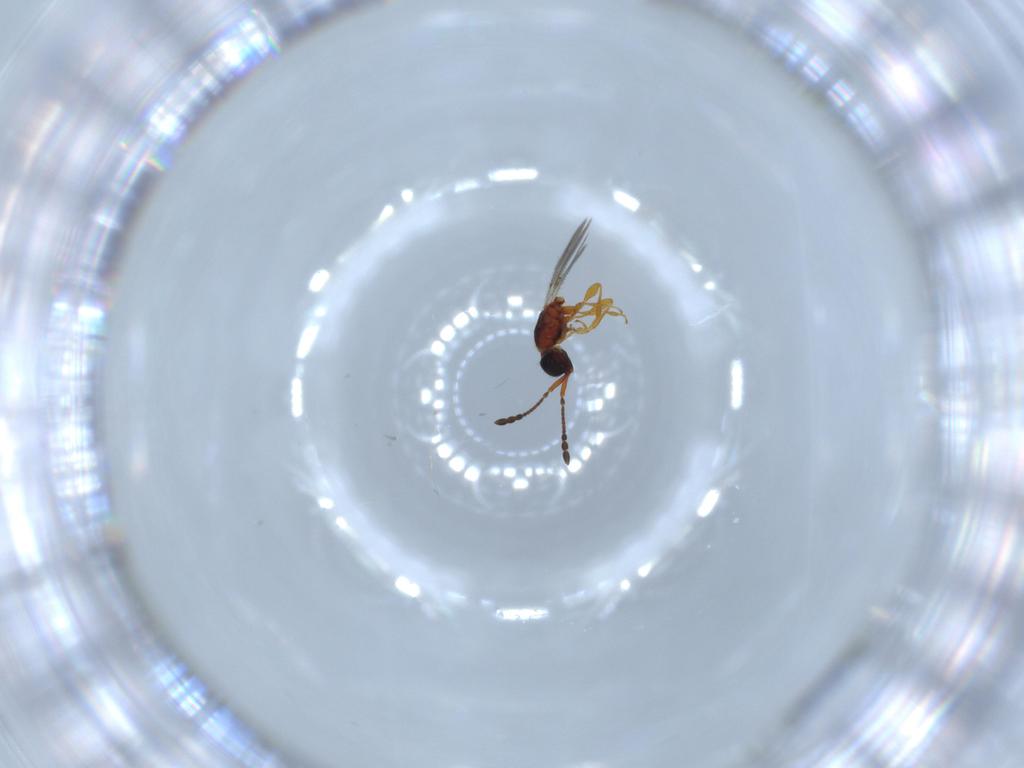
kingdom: Animalia
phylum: Arthropoda
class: Insecta
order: Hymenoptera
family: Diapriidae
